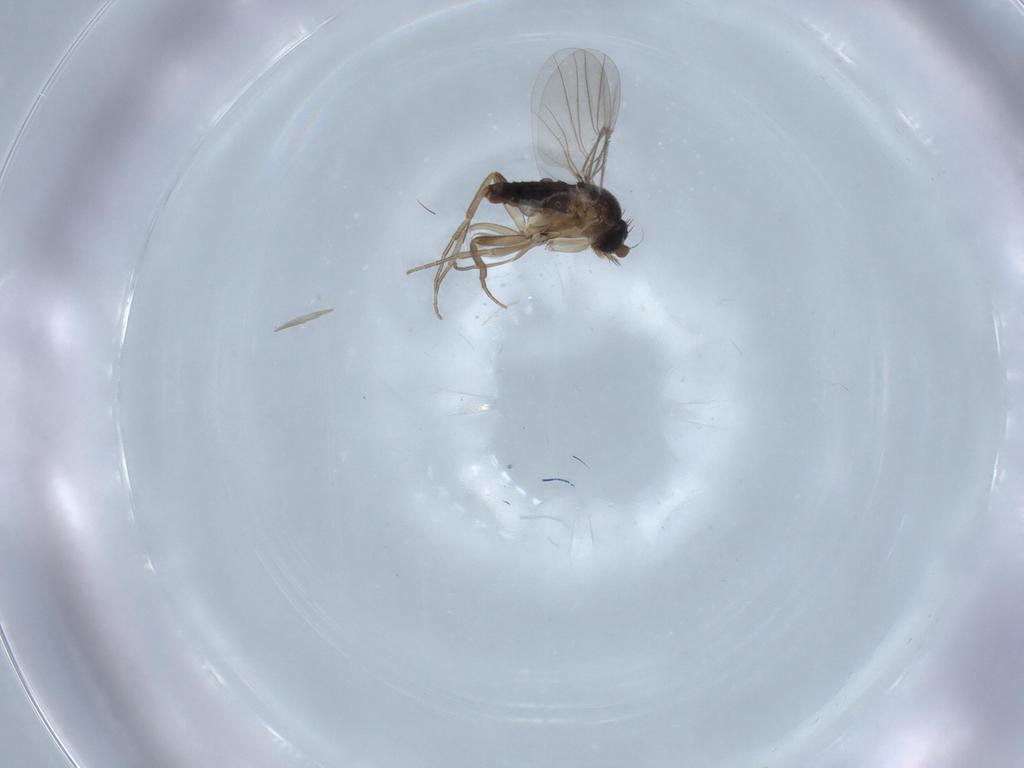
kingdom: Animalia
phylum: Arthropoda
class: Insecta
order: Diptera
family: Chironomidae
